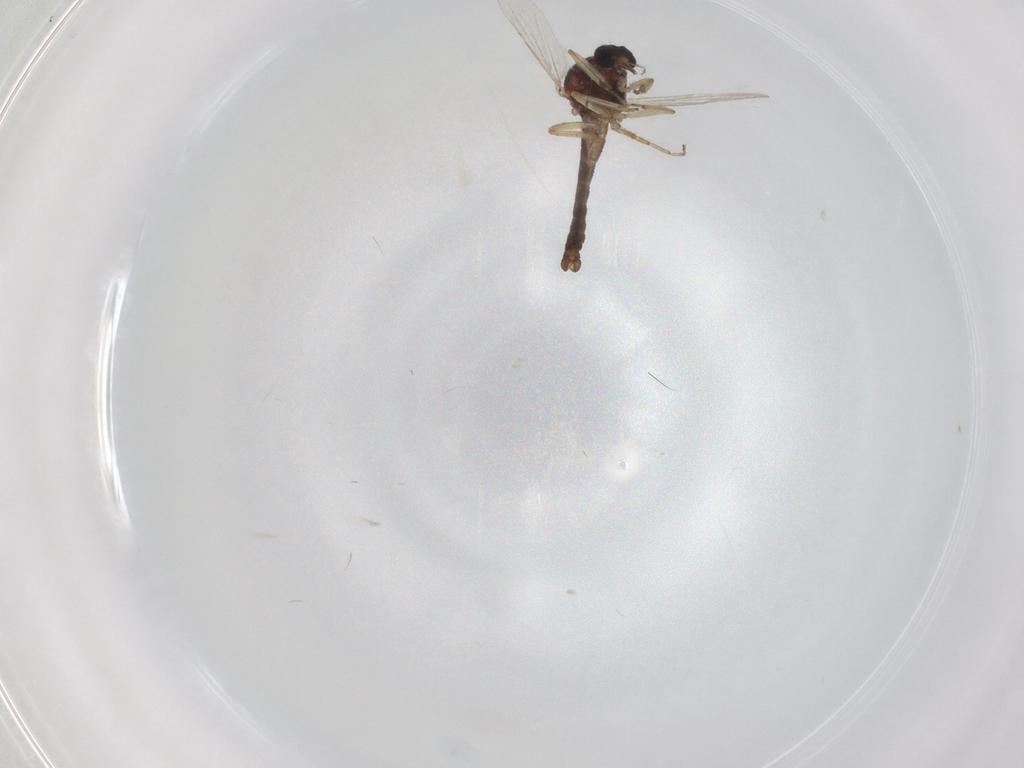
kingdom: Animalia
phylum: Arthropoda
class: Insecta
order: Diptera
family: Ceratopogonidae
